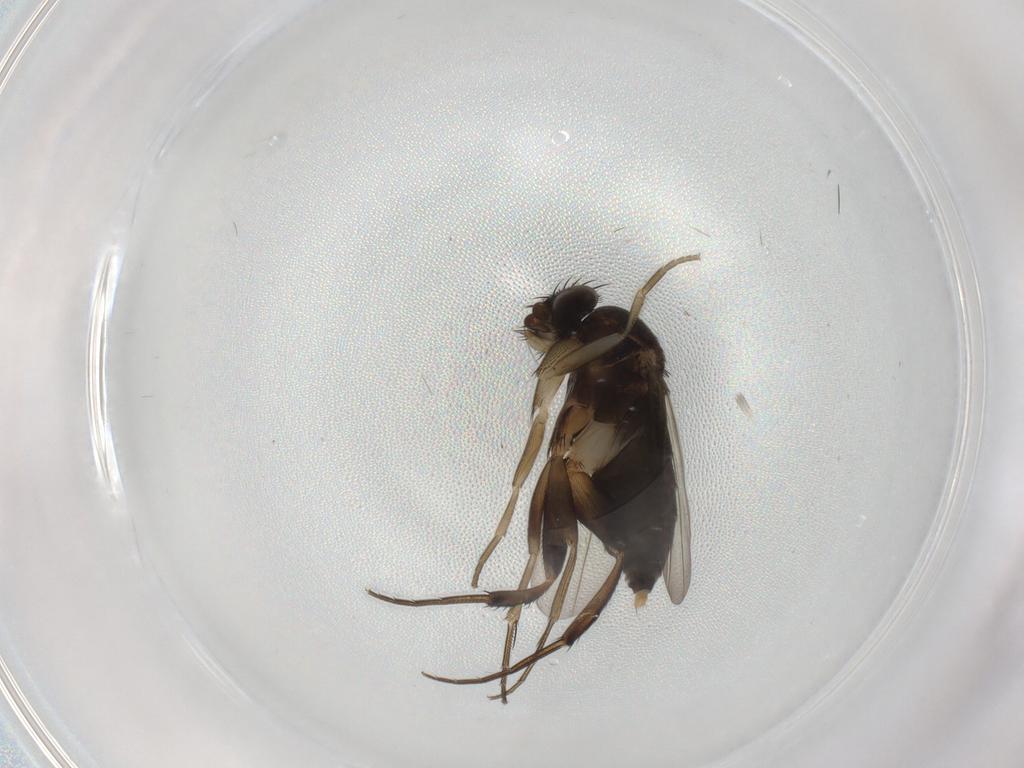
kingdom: Animalia
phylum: Arthropoda
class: Insecta
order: Diptera
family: Phoridae
